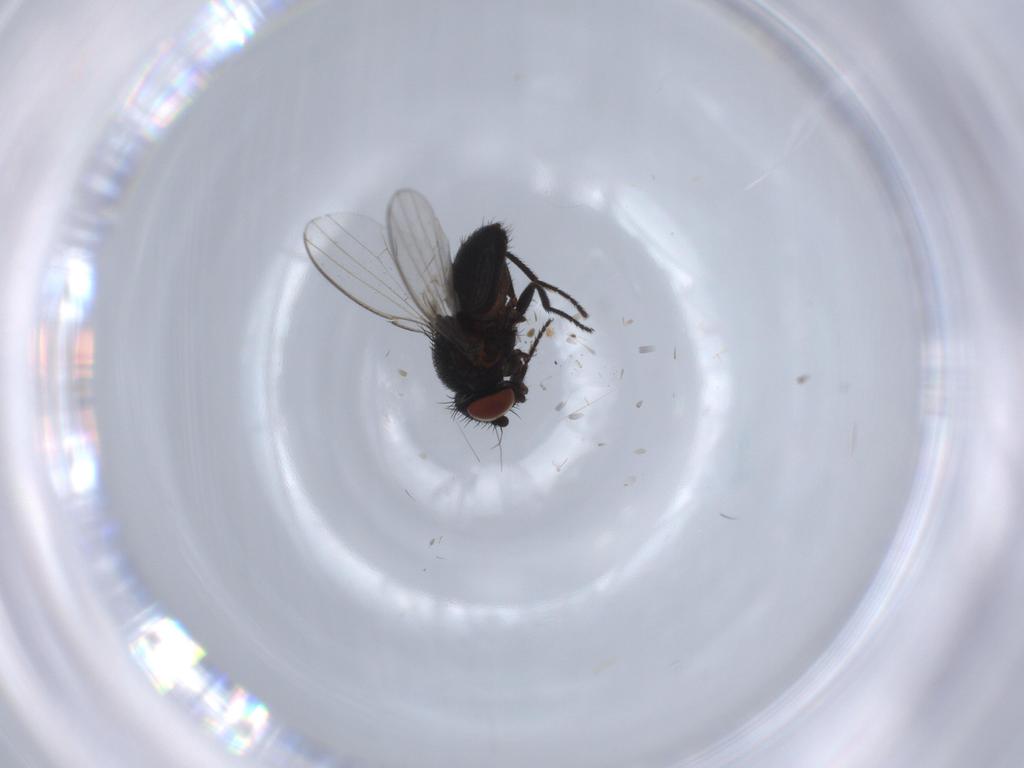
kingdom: Animalia
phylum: Arthropoda
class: Insecta
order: Diptera
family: Milichiidae
